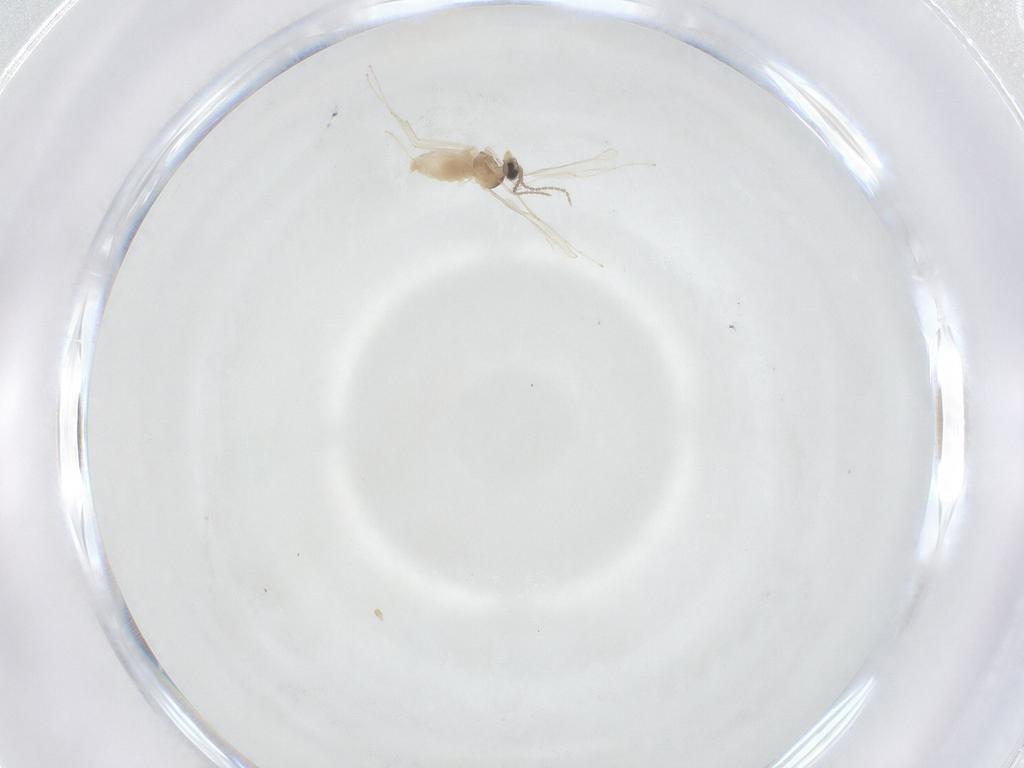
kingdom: Animalia
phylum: Arthropoda
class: Insecta
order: Diptera
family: Cecidomyiidae
